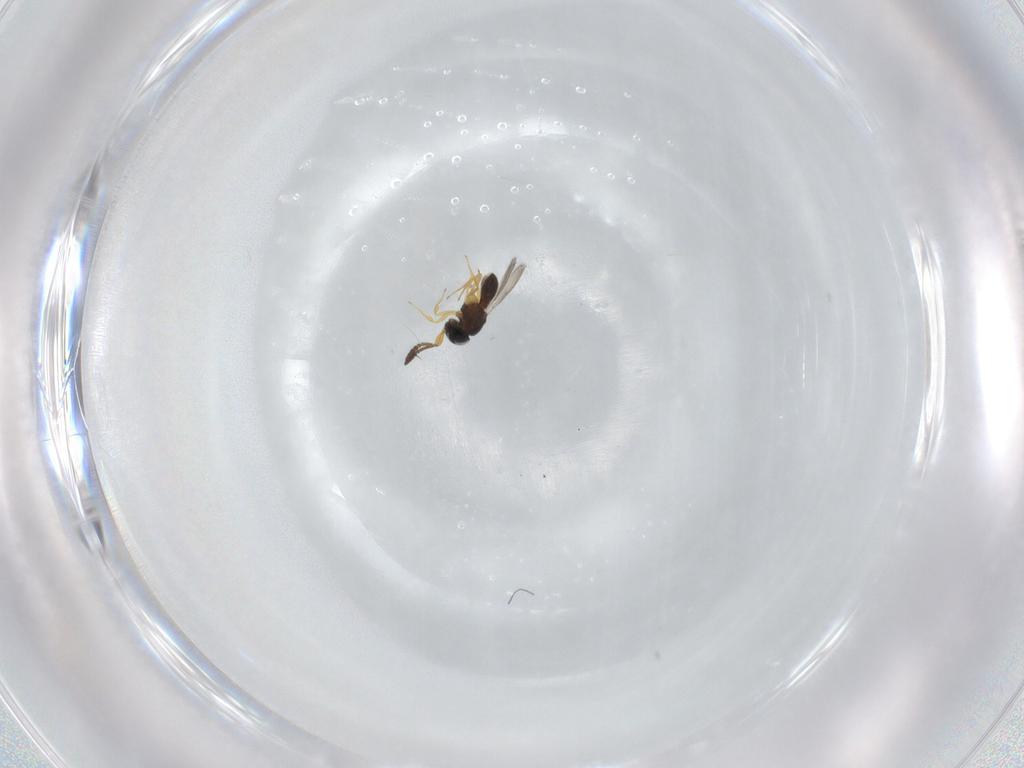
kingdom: Animalia
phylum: Arthropoda
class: Insecta
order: Hymenoptera
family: Scelionidae
